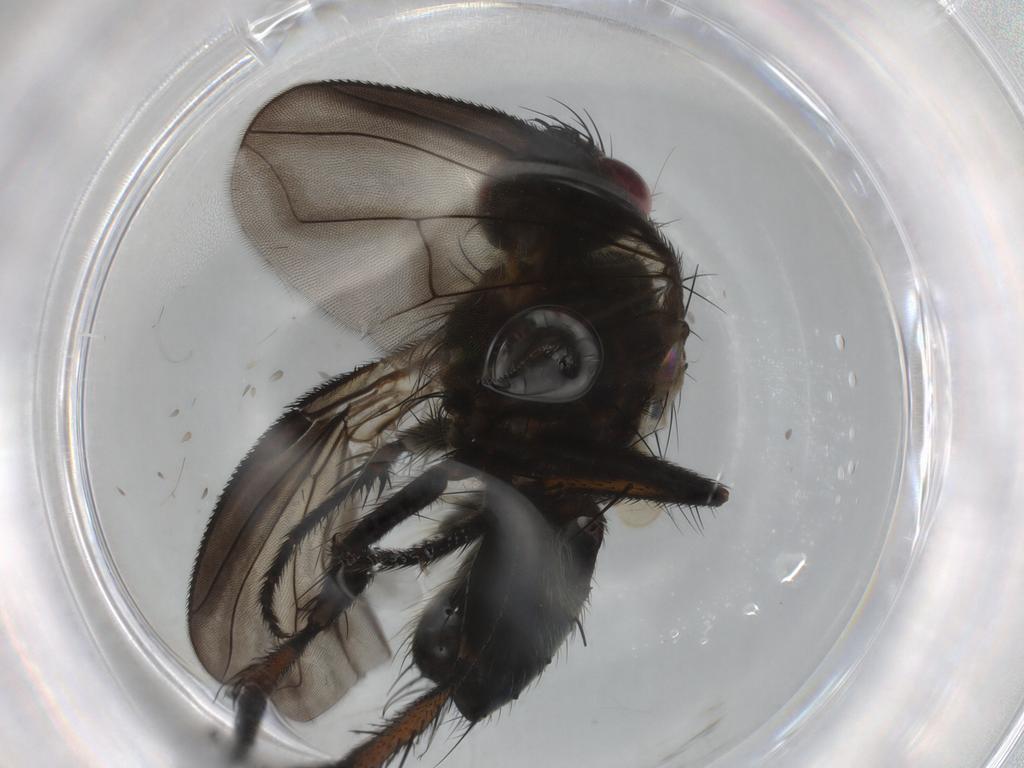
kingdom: Animalia
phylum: Arthropoda
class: Insecta
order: Diptera
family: Tachinidae
